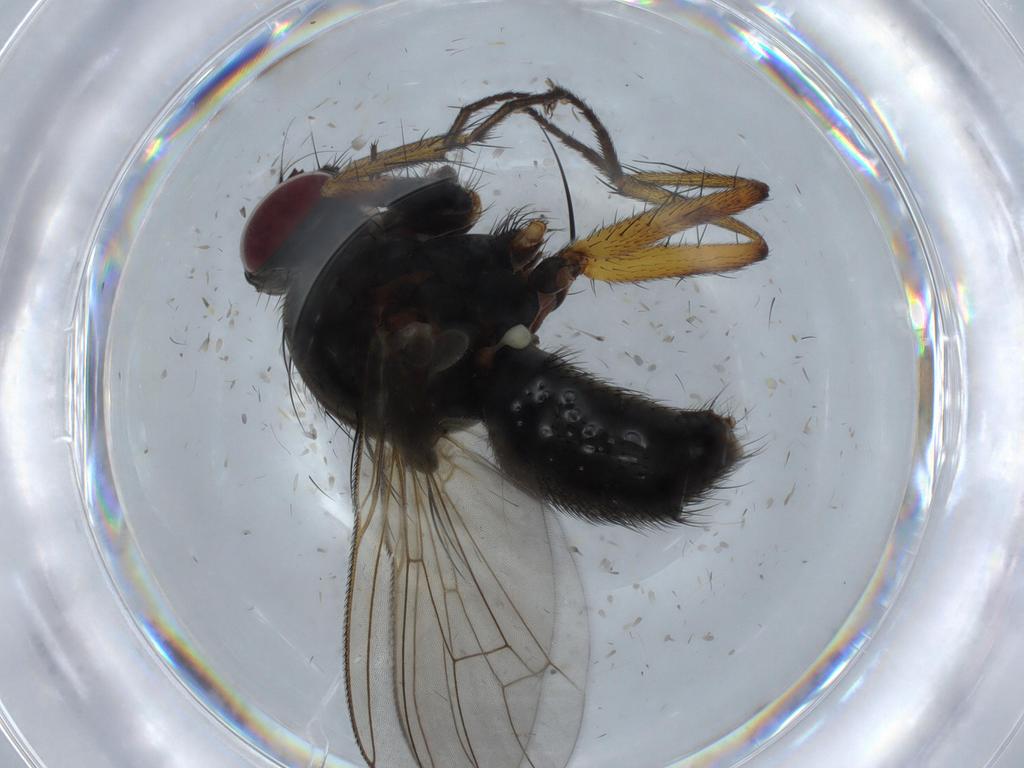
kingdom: Animalia
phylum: Arthropoda
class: Insecta
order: Diptera
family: Muscidae
